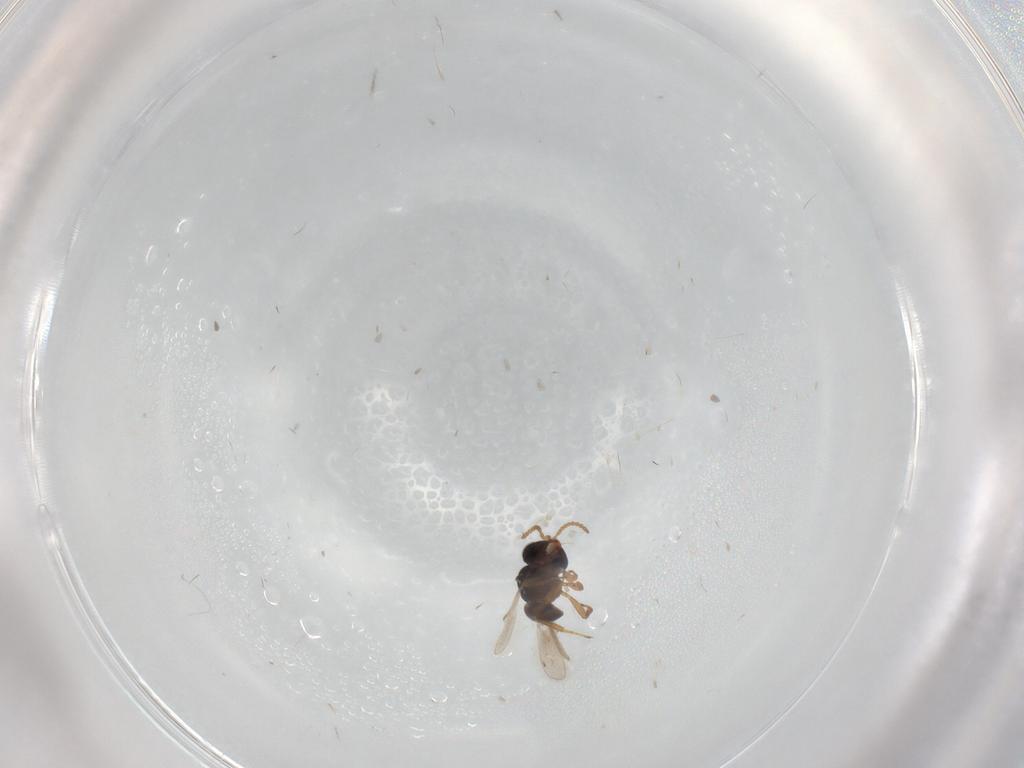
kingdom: Animalia
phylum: Arthropoda
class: Insecta
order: Hymenoptera
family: Scelionidae
